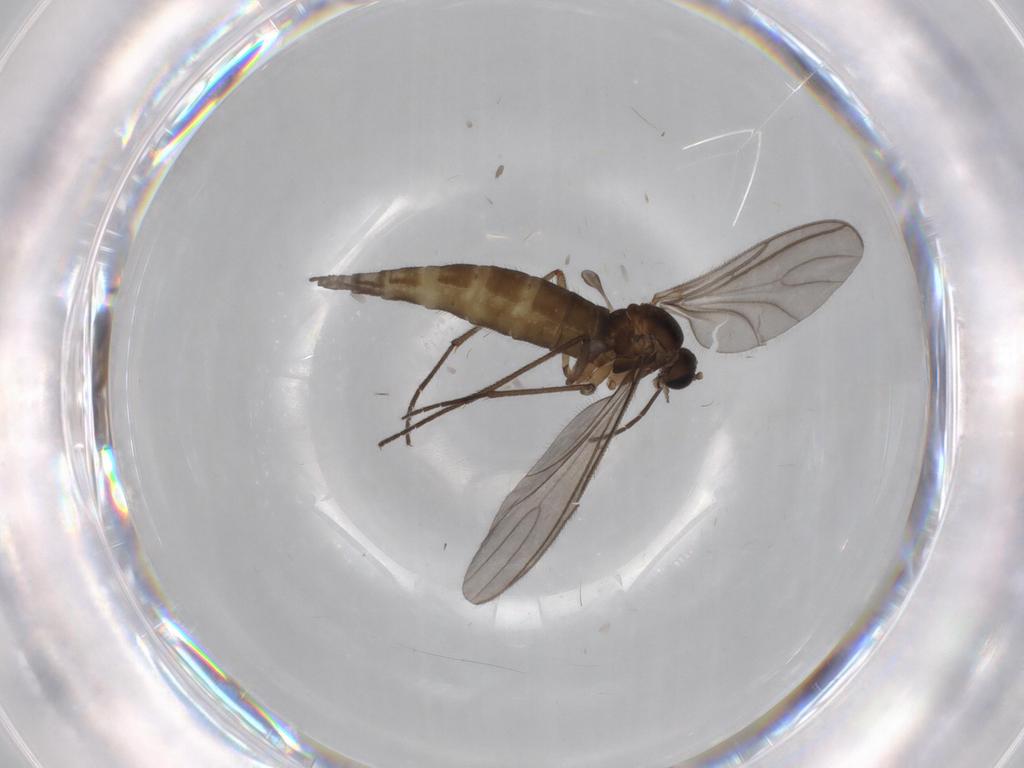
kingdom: Animalia
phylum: Arthropoda
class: Insecta
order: Diptera
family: Sciaridae
